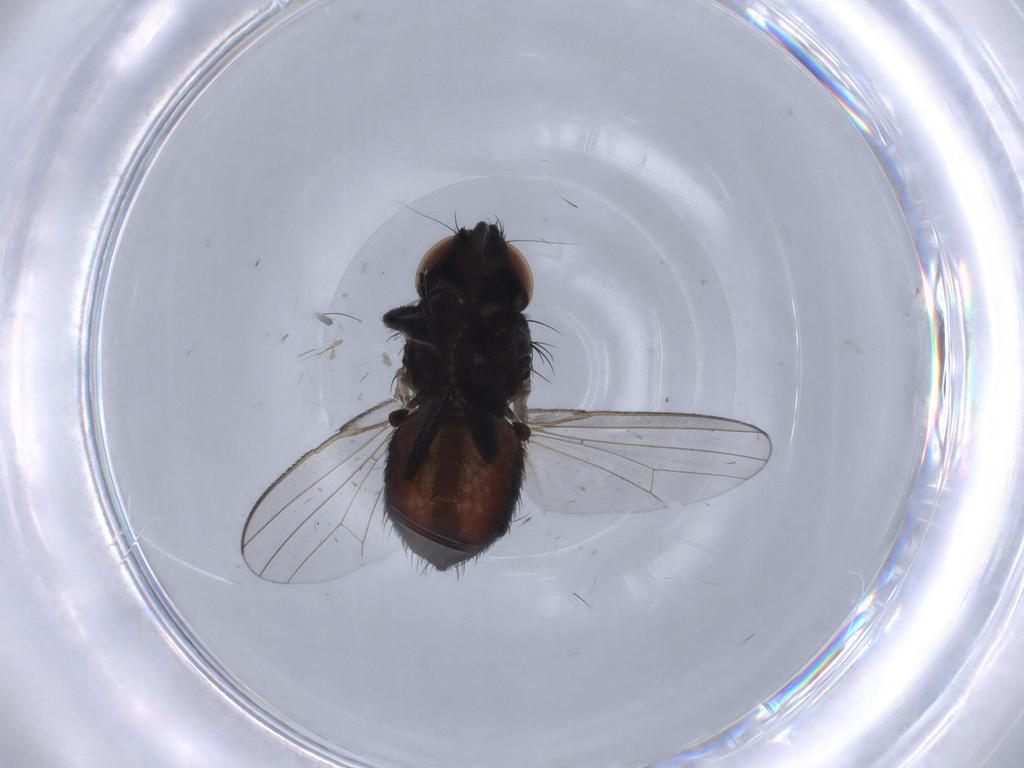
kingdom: Animalia
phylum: Arthropoda
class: Insecta
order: Diptera
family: Milichiidae
